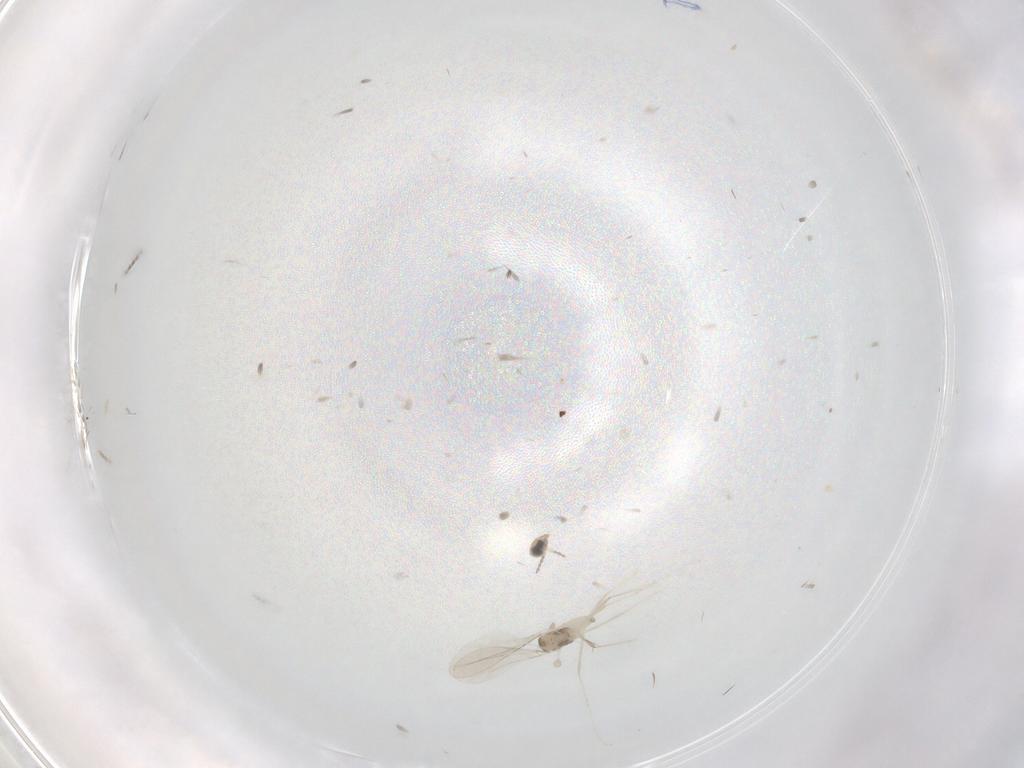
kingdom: Animalia
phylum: Arthropoda
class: Insecta
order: Diptera
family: Cecidomyiidae
